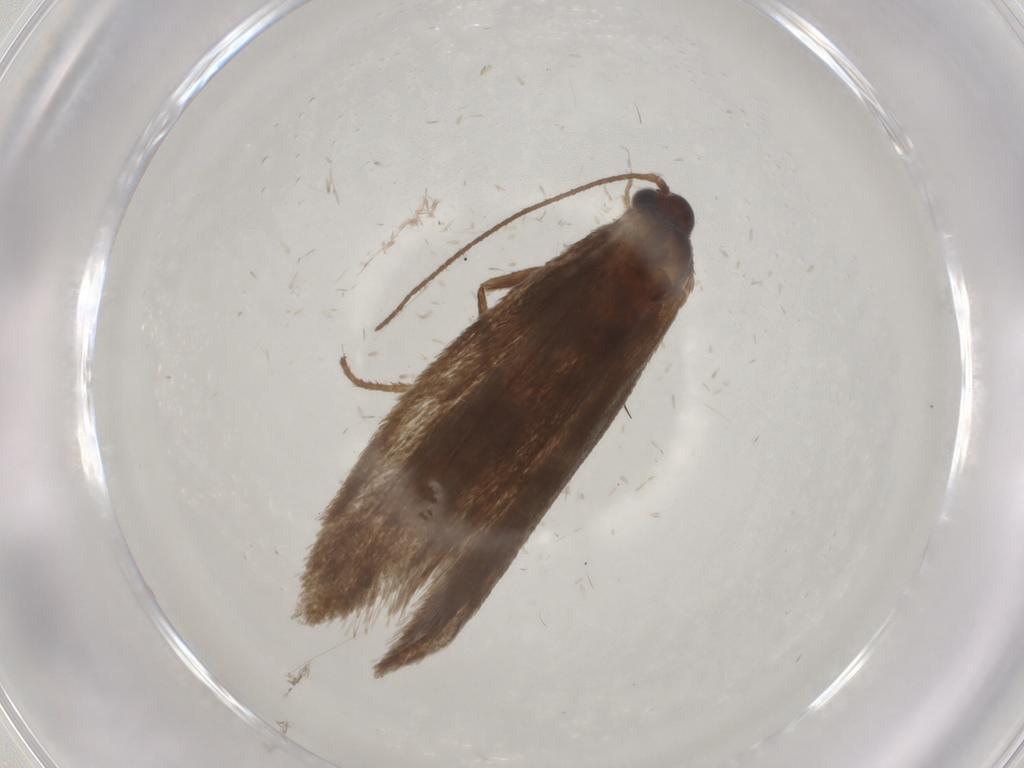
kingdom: Animalia
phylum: Arthropoda
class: Insecta
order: Lepidoptera
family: Limacodidae
